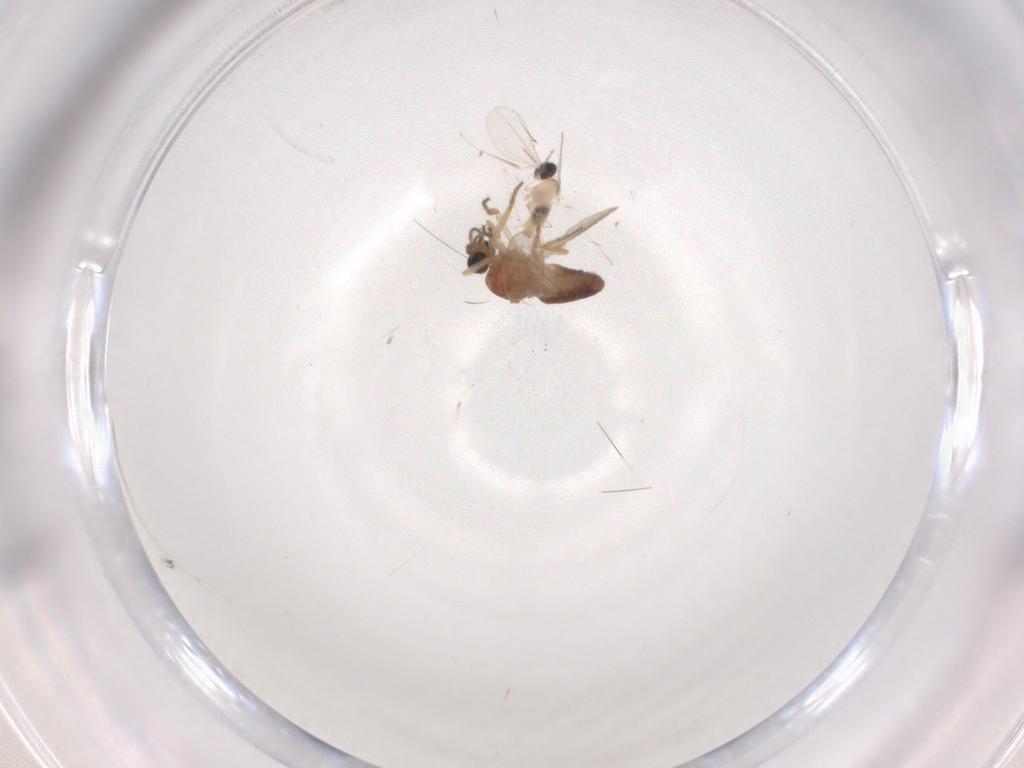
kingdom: Animalia
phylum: Arthropoda
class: Insecta
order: Diptera
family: Ceratopogonidae
